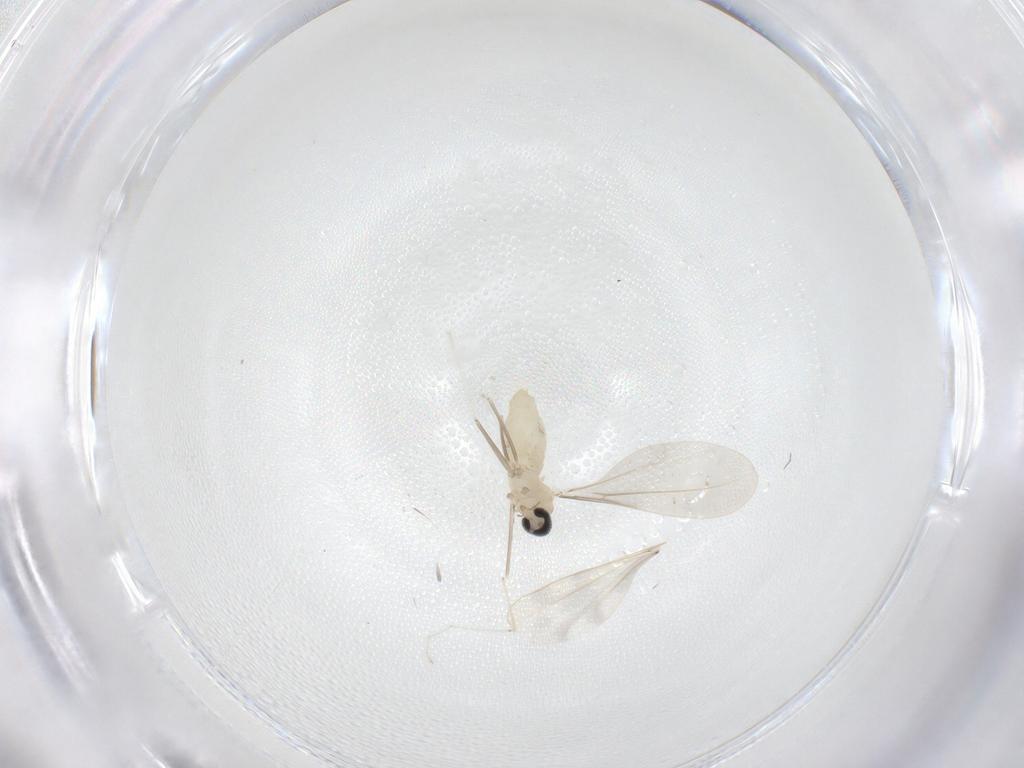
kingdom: Animalia
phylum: Arthropoda
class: Insecta
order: Diptera
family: Cecidomyiidae
